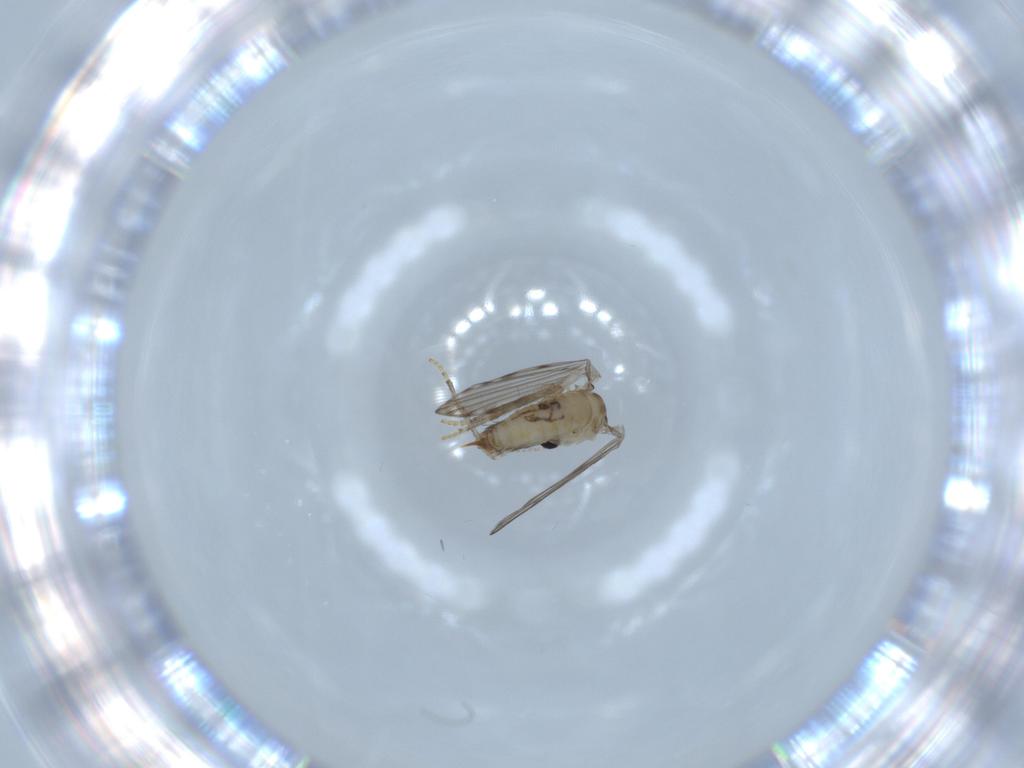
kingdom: Animalia
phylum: Arthropoda
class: Insecta
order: Diptera
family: Psychodidae
